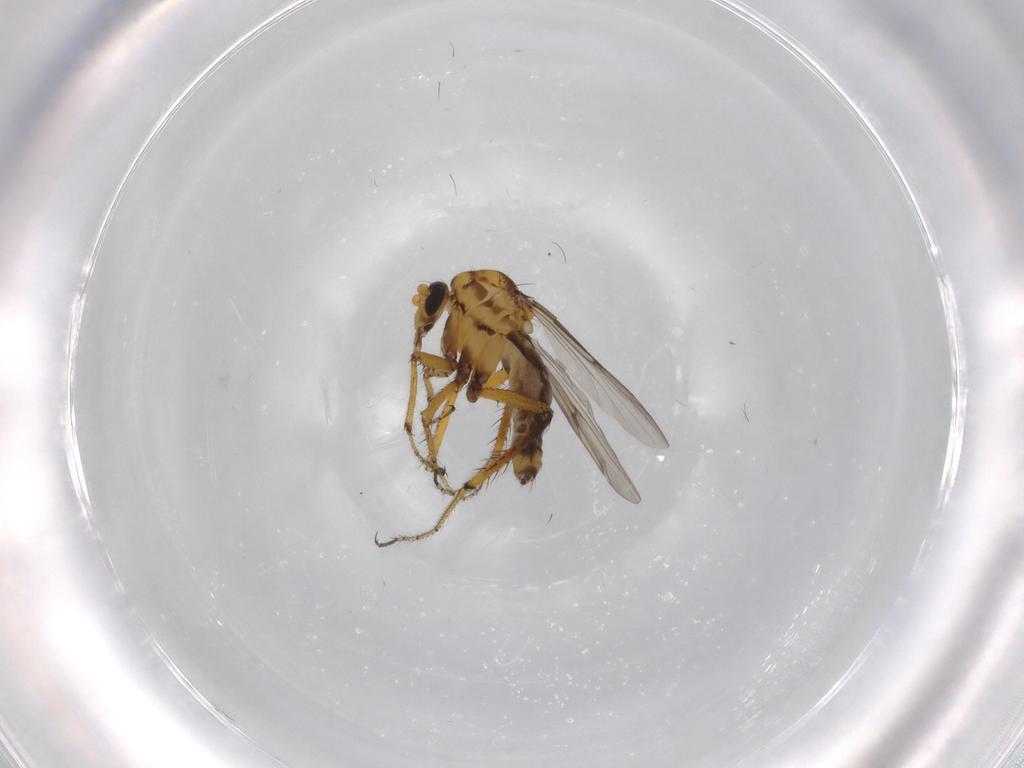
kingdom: Animalia
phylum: Arthropoda
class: Insecta
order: Diptera
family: Ceratopogonidae
